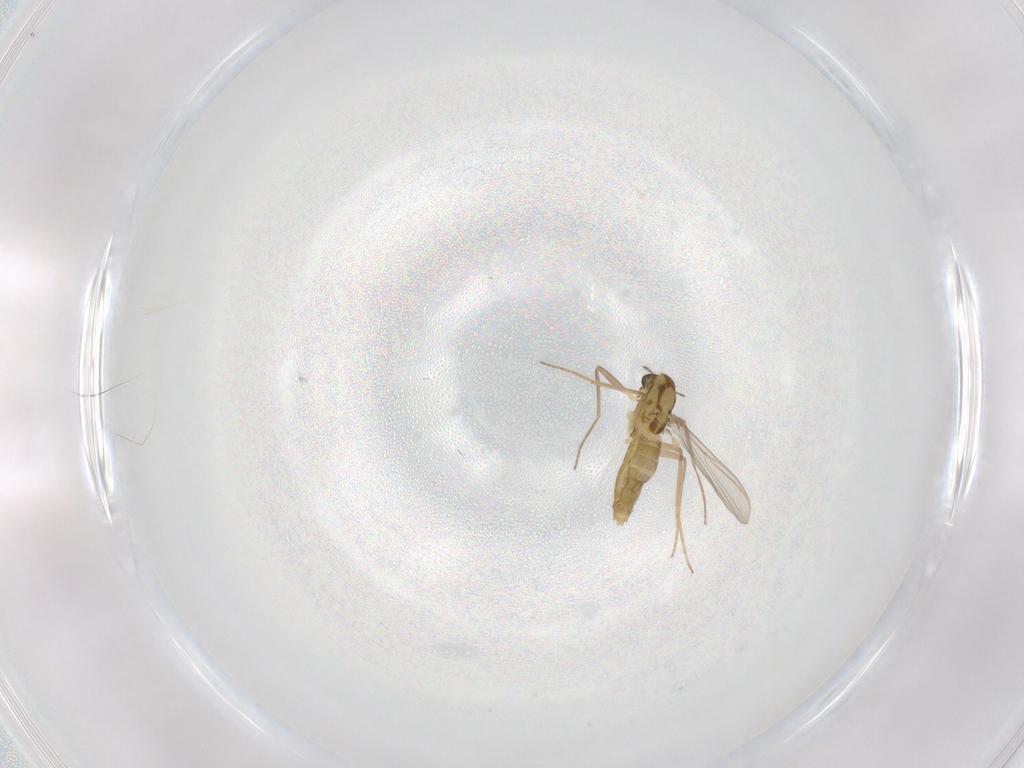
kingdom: Animalia
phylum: Arthropoda
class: Insecta
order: Diptera
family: Chironomidae
